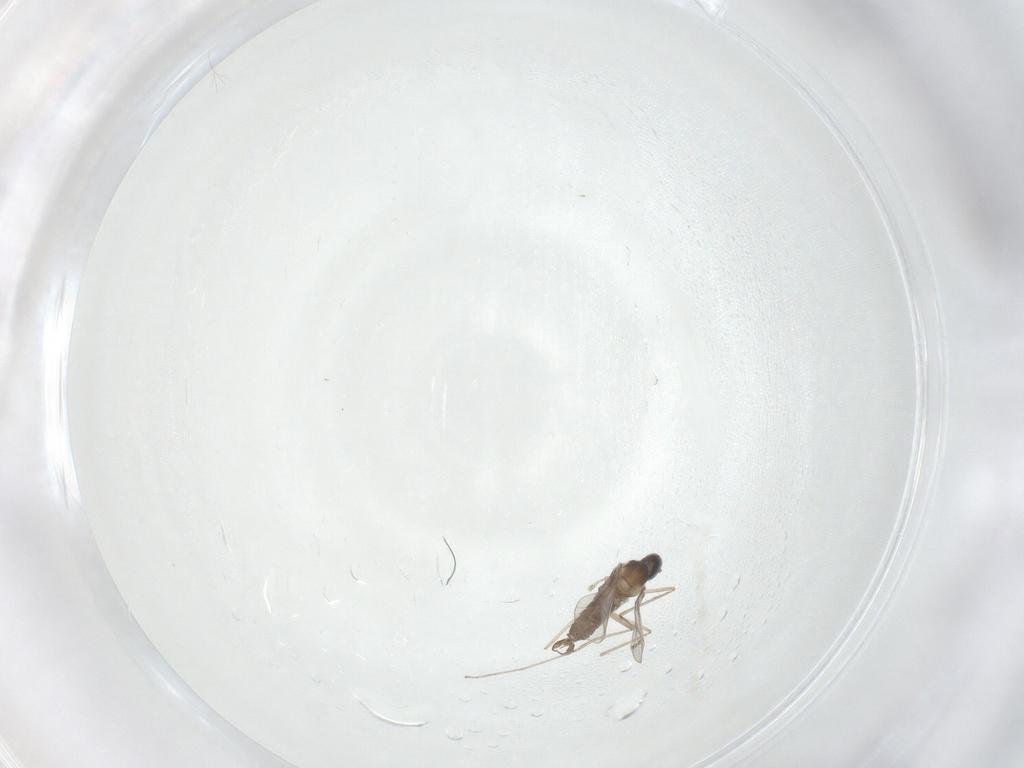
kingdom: Animalia
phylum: Arthropoda
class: Insecta
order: Diptera
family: Cecidomyiidae
